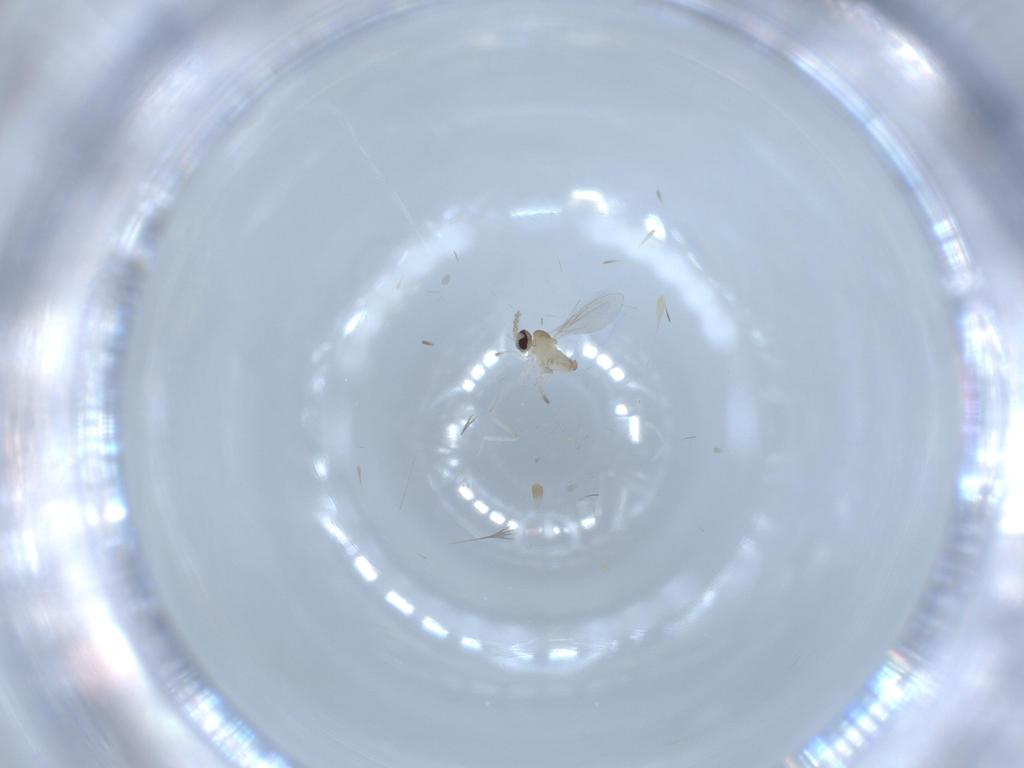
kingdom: Animalia
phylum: Arthropoda
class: Insecta
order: Diptera
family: Cecidomyiidae
